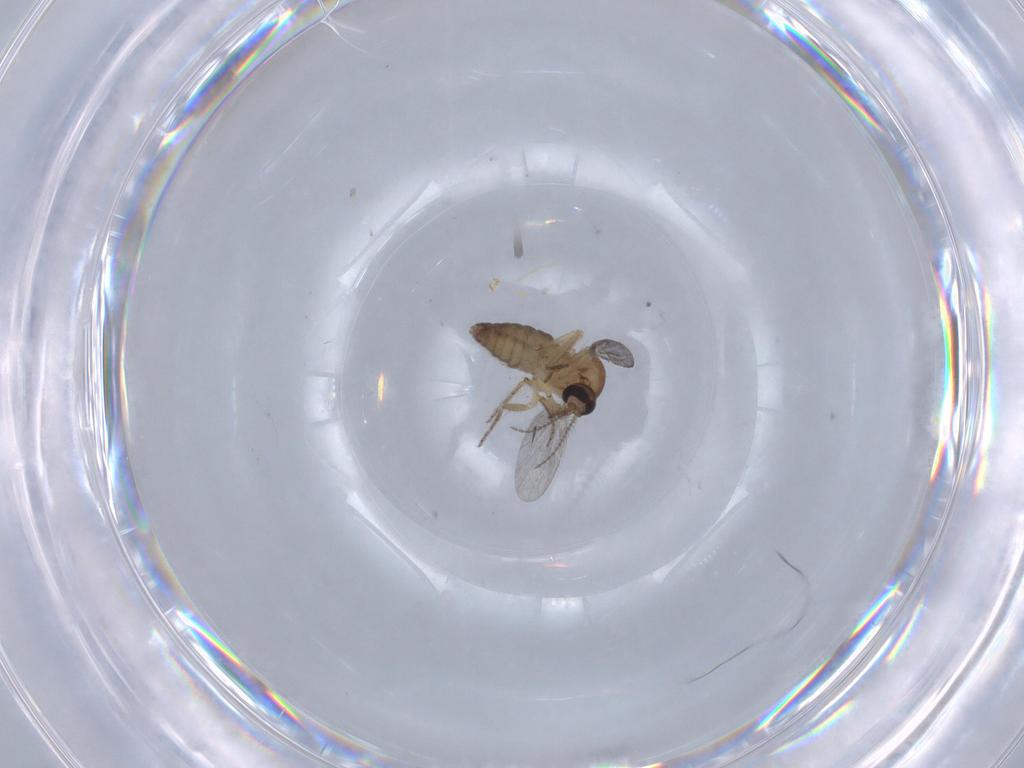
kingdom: Animalia
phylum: Arthropoda
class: Insecta
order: Diptera
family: Ceratopogonidae
